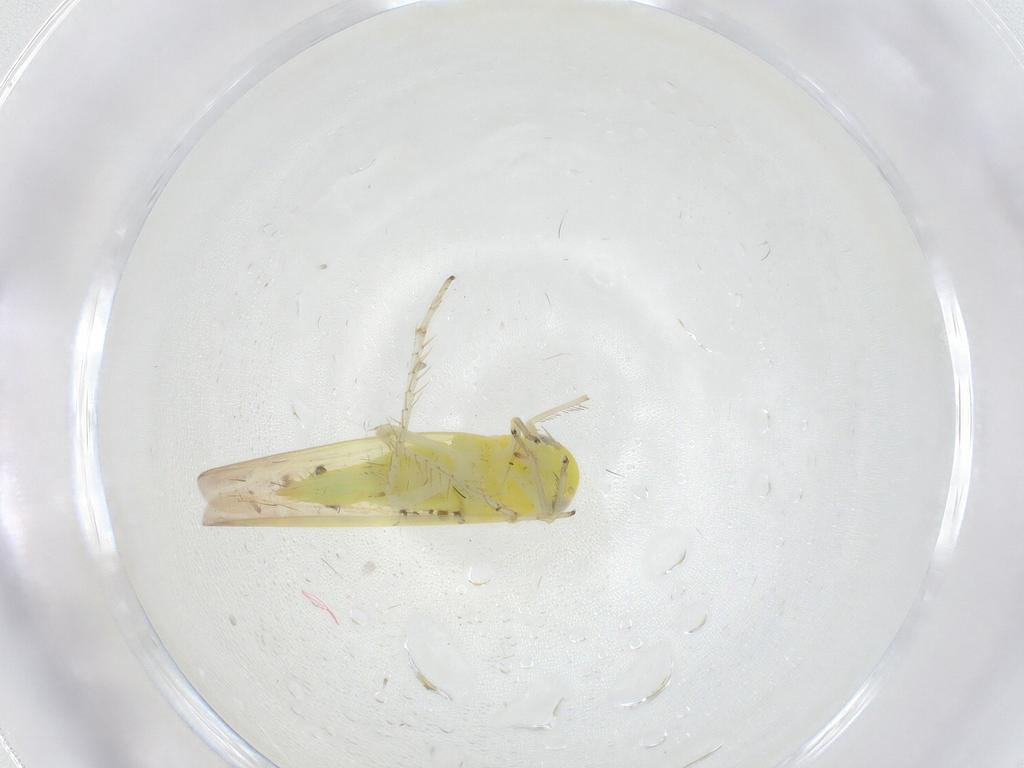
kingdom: Animalia
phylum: Arthropoda
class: Insecta
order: Hemiptera
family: Cicadellidae
